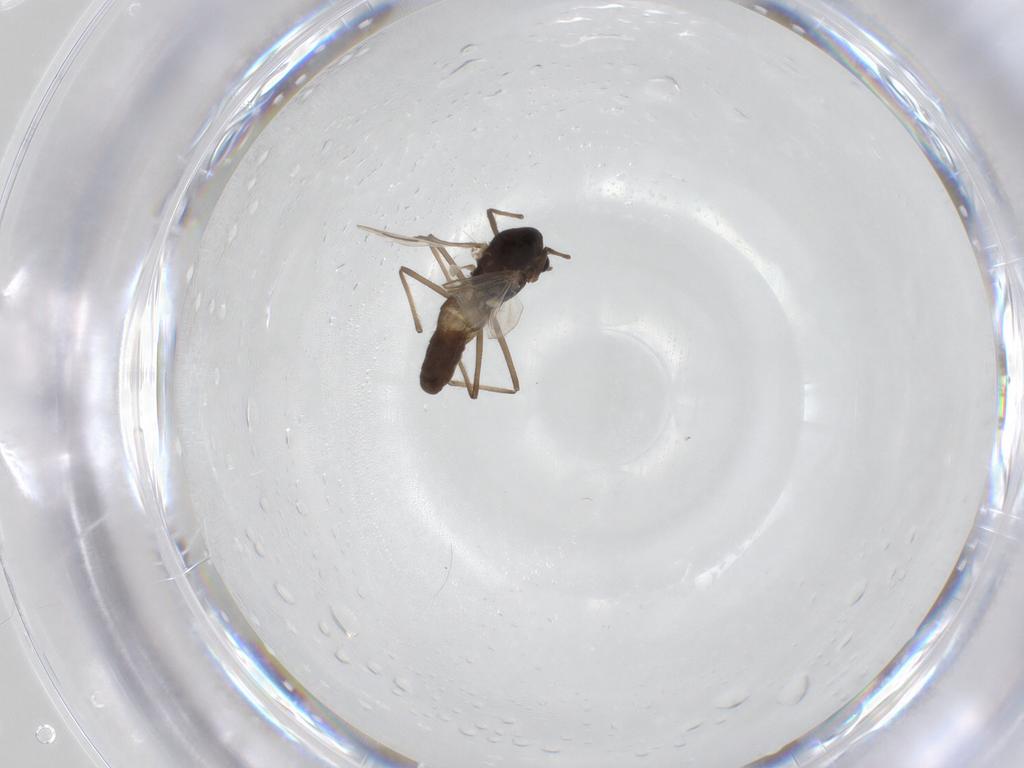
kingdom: Animalia
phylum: Arthropoda
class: Insecta
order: Diptera
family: Chironomidae
